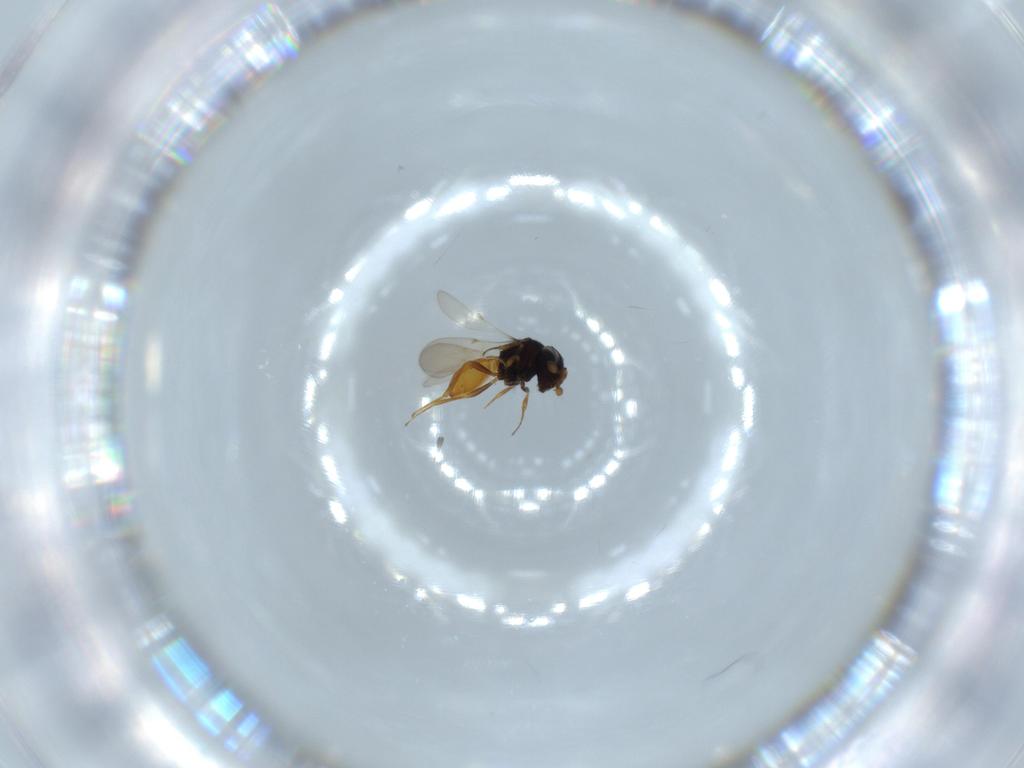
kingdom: Animalia
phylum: Arthropoda
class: Insecta
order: Hymenoptera
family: Scelionidae
